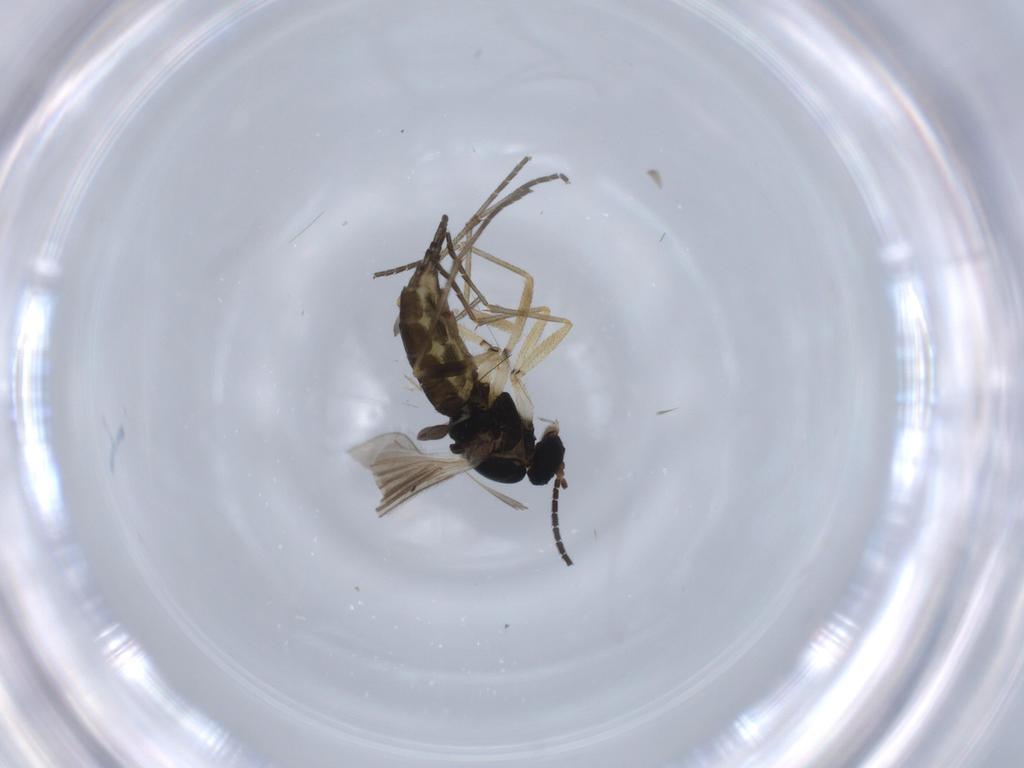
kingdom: Animalia
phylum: Arthropoda
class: Insecta
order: Diptera
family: Sciaridae
